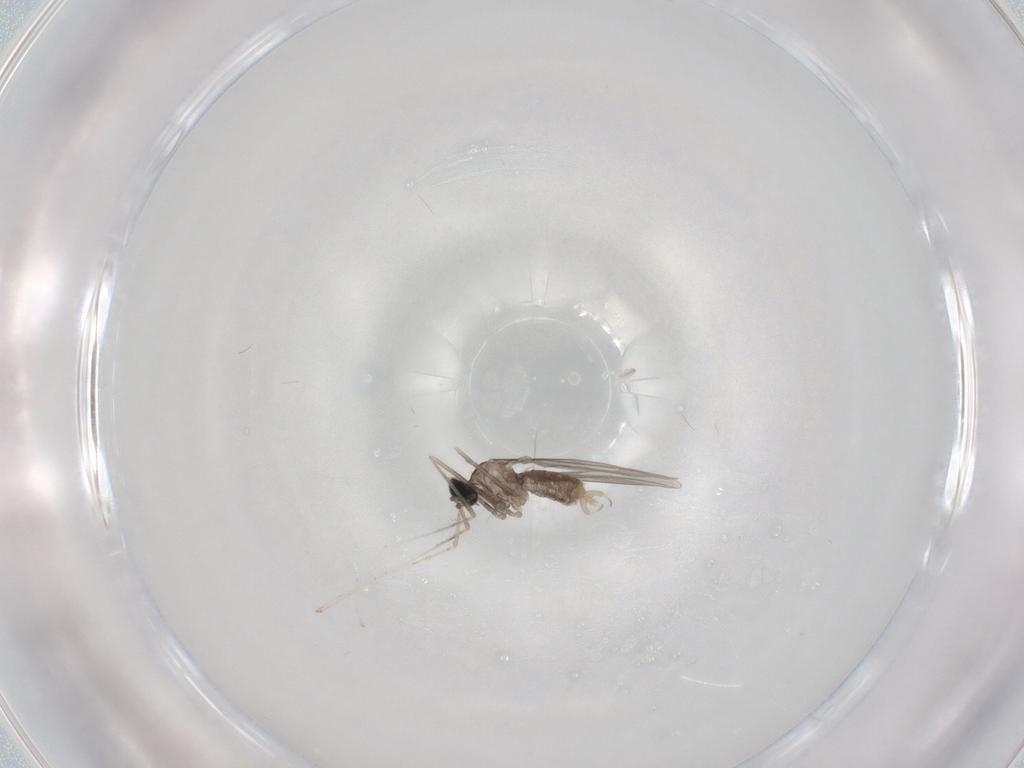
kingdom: Animalia
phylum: Arthropoda
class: Insecta
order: Diptera
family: Cecidomyiidae
